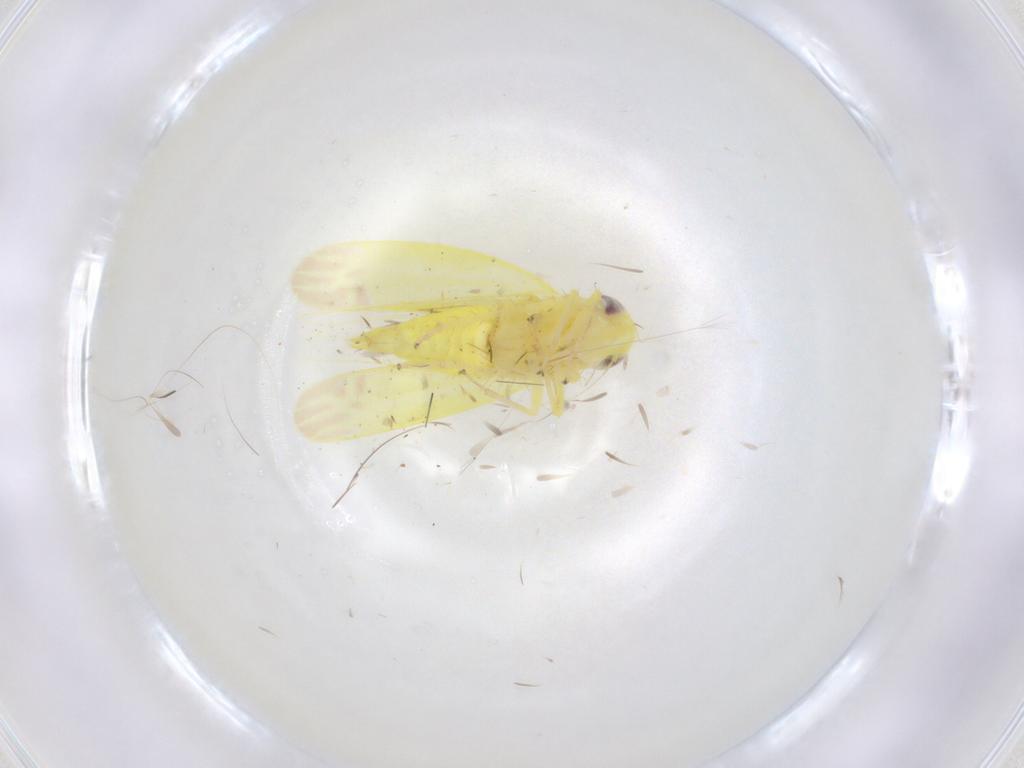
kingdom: Animalia
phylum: Arthropoda
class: Insecta
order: Hemiptera
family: Cicadellidae
